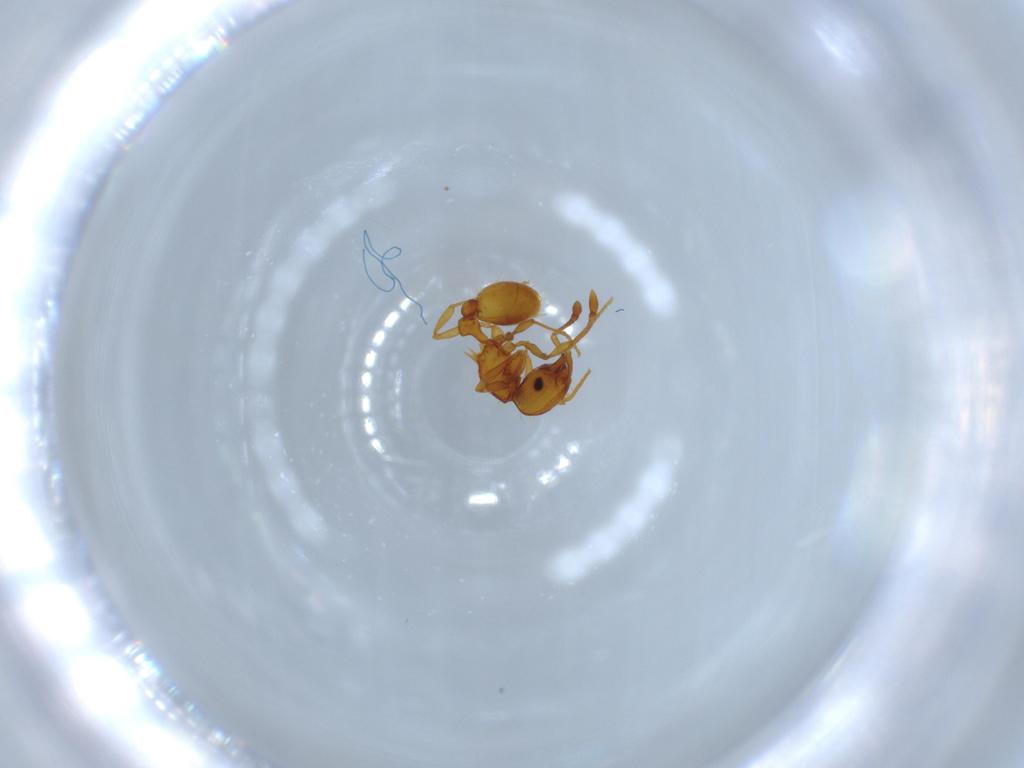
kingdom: Animalia
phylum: Arthropoda
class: Insecta
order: Hymenoptera
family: Formicidae
